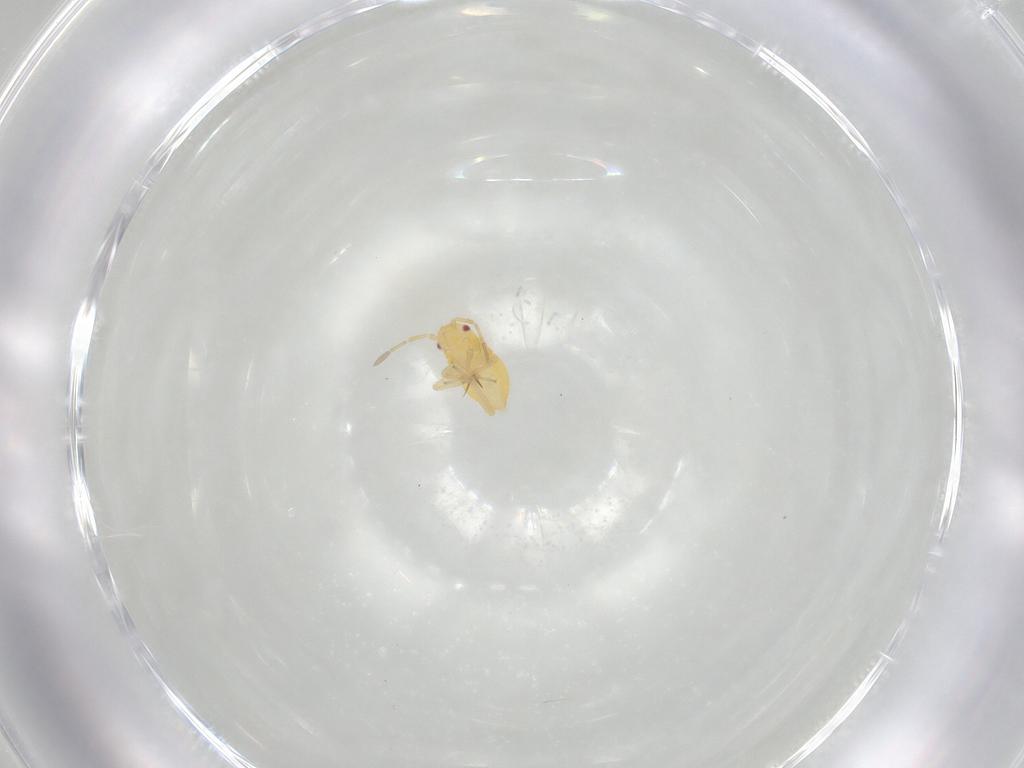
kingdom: Animalia
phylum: Arthropoda
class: Insecta
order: Hemiptera
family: Miridae
